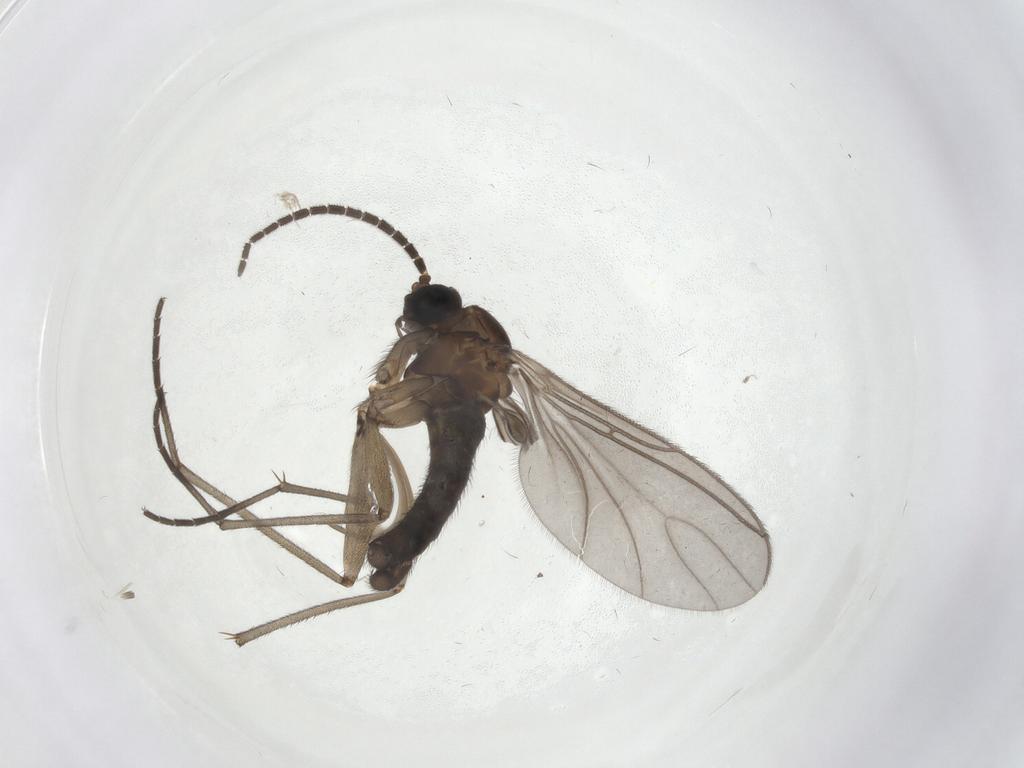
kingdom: Animalia
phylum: Arthropoda
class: Insecta
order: Diptera
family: Sciaridae
